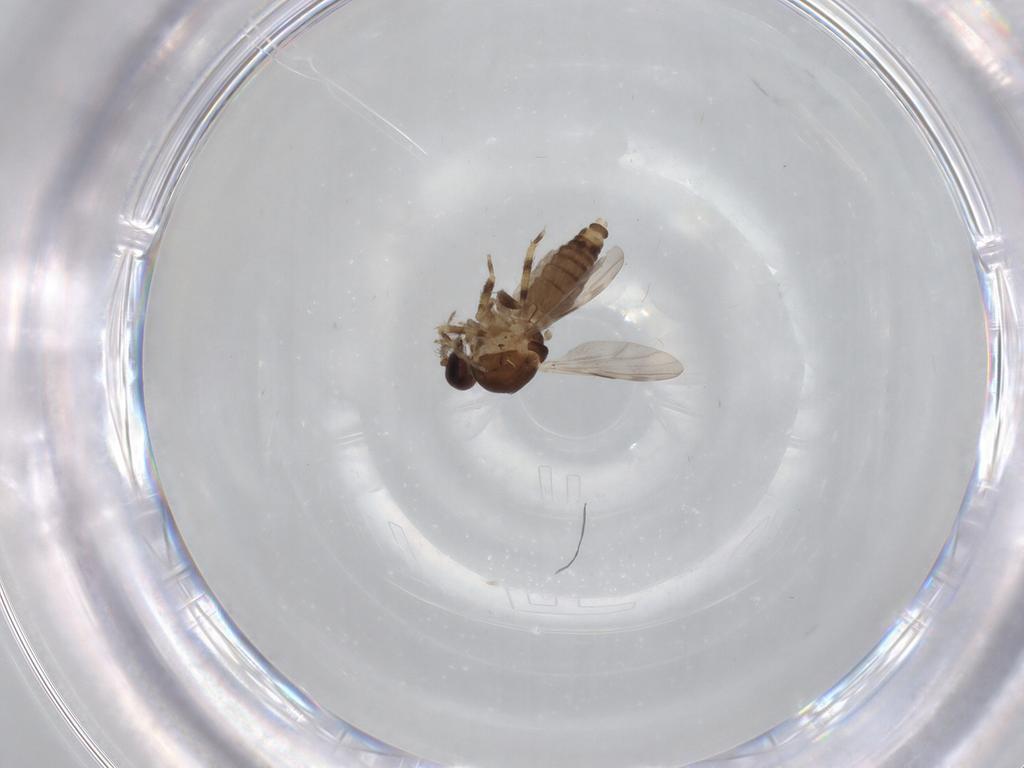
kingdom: Animalia
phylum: Arthropoda
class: Insecta
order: Diptera
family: Ceratopogonidae
